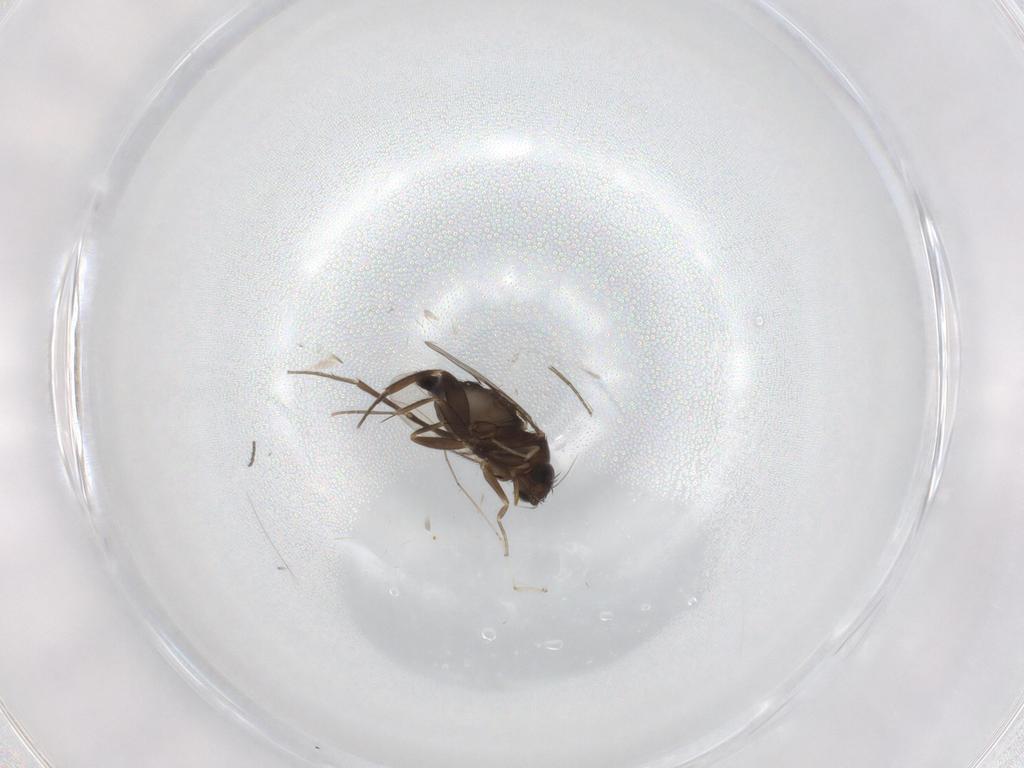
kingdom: Animalia
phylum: Arthropoda
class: Insecta
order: Diptera
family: Phoridae
